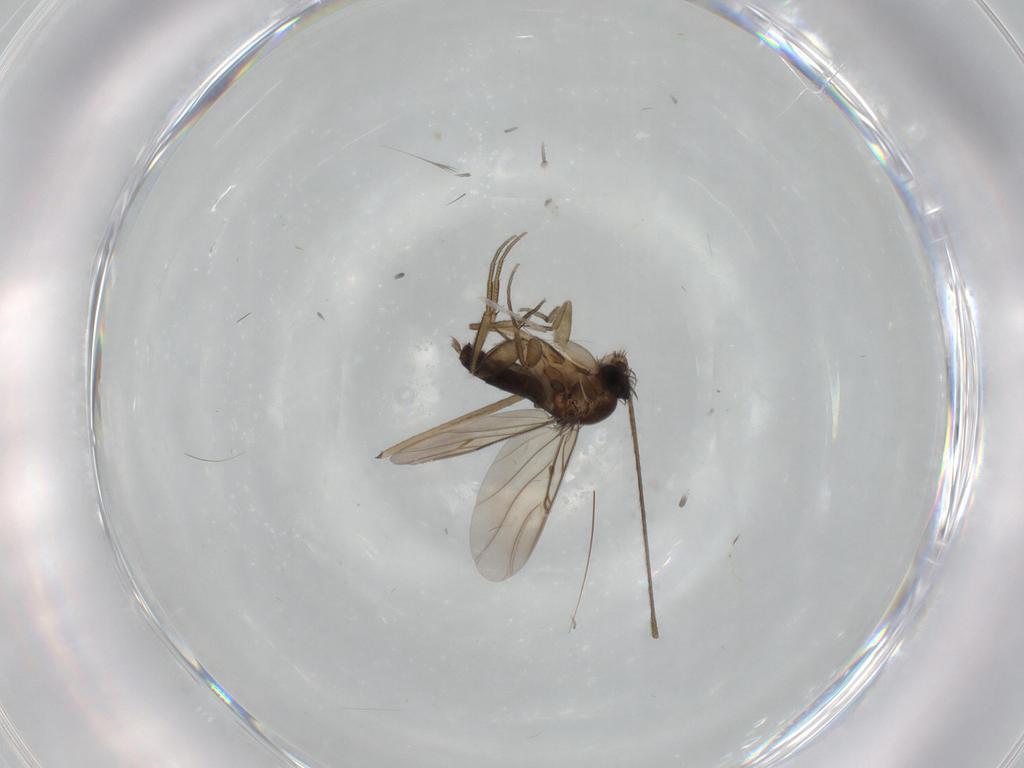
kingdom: Animalia
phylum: Arthropoda
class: Insecta
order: Diptera
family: Limoniidae
